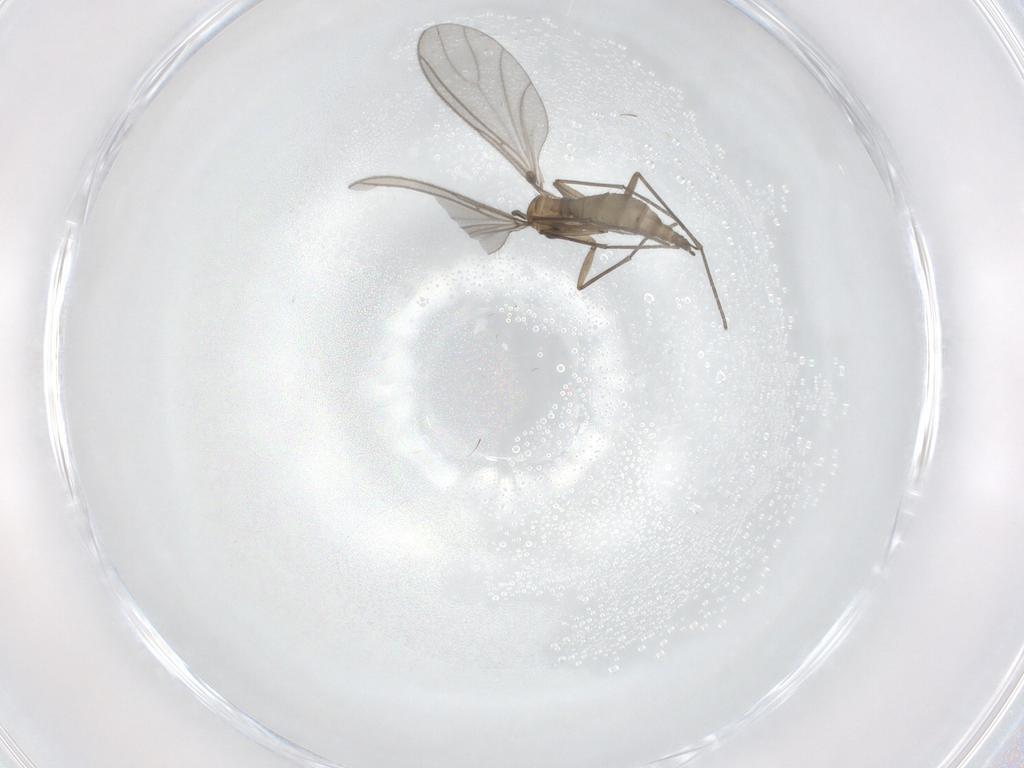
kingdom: Animalia
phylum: Arthropoda
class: Insecta
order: Diptera
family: Sciaridae
